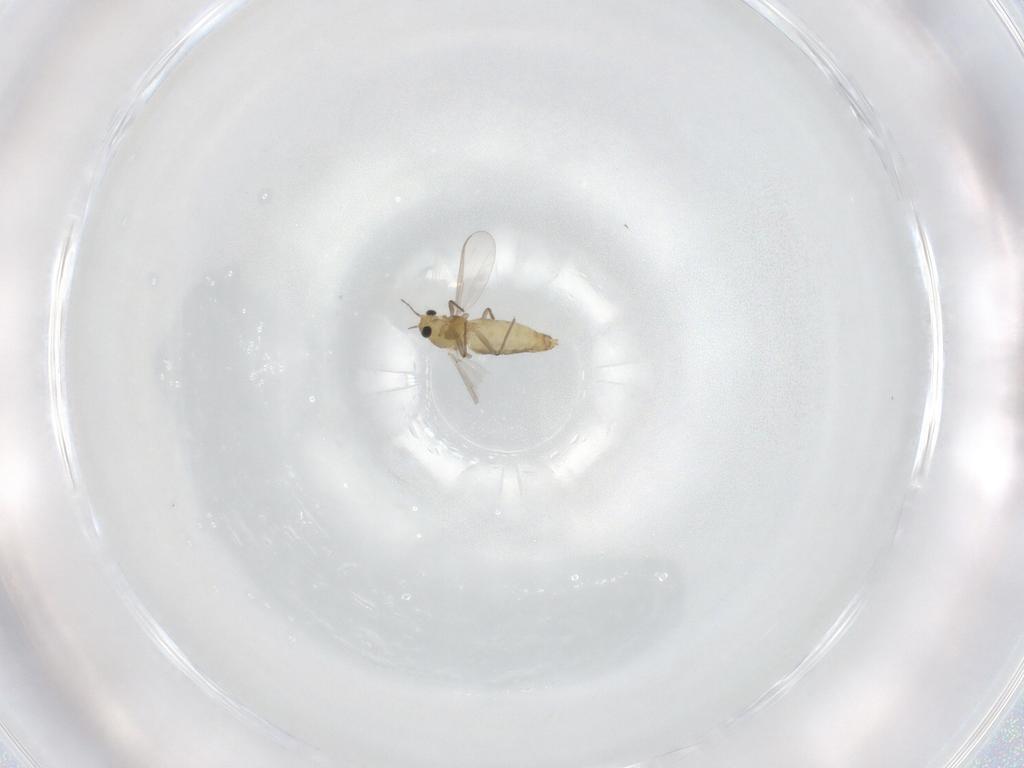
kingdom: Animalia
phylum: Arthropoda
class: Insecta
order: Diptera
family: Chironomidae
